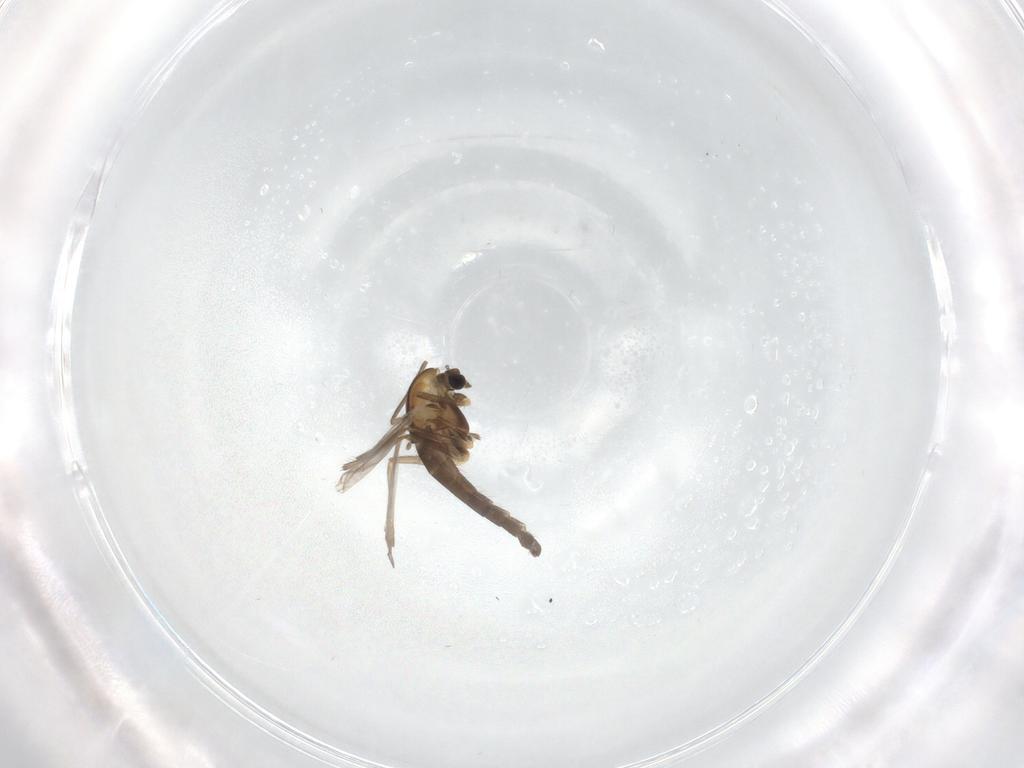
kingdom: Animalia
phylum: Arthropoda
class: Insecta
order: Diptera
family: Chironomidae
